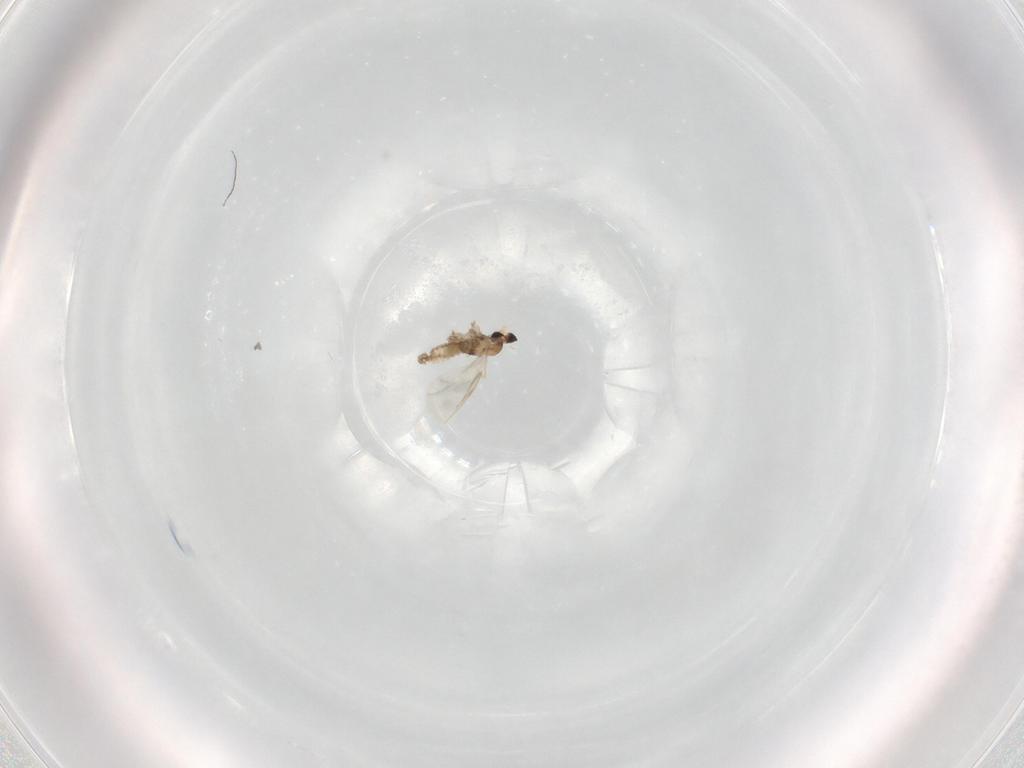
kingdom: Animalia
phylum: Arthropoda
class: Insecta
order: Diptera
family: Cecidomyiidae
